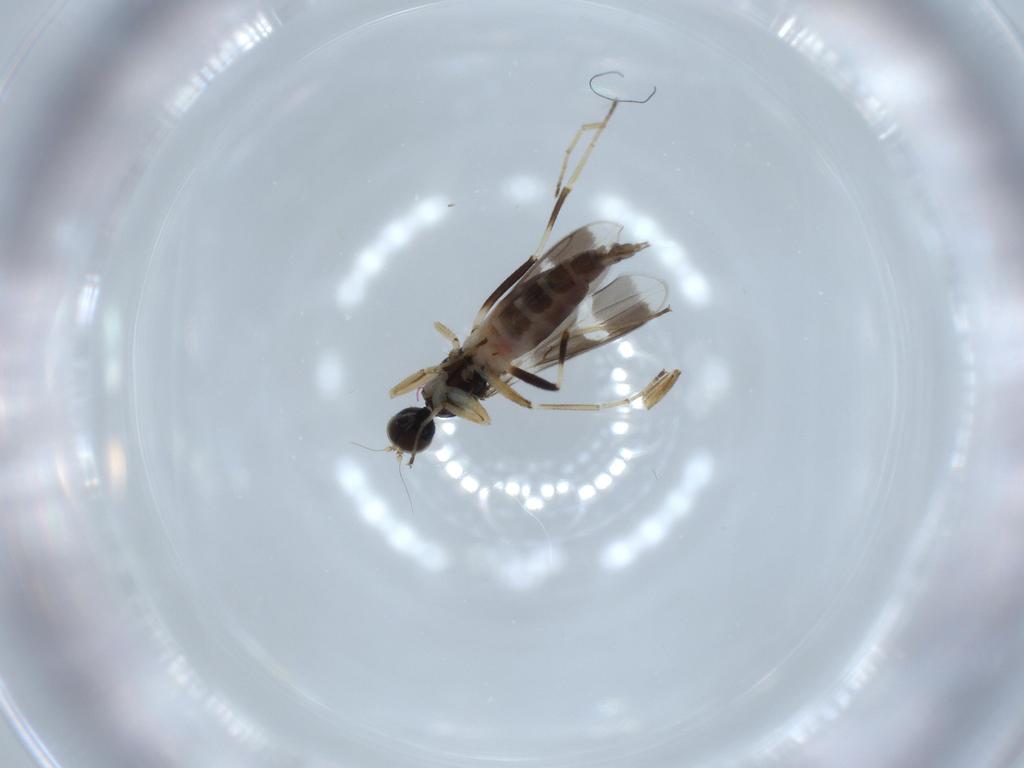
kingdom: Animalia
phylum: Arthropoda
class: Insecta
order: Diptera
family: Hybotidae
